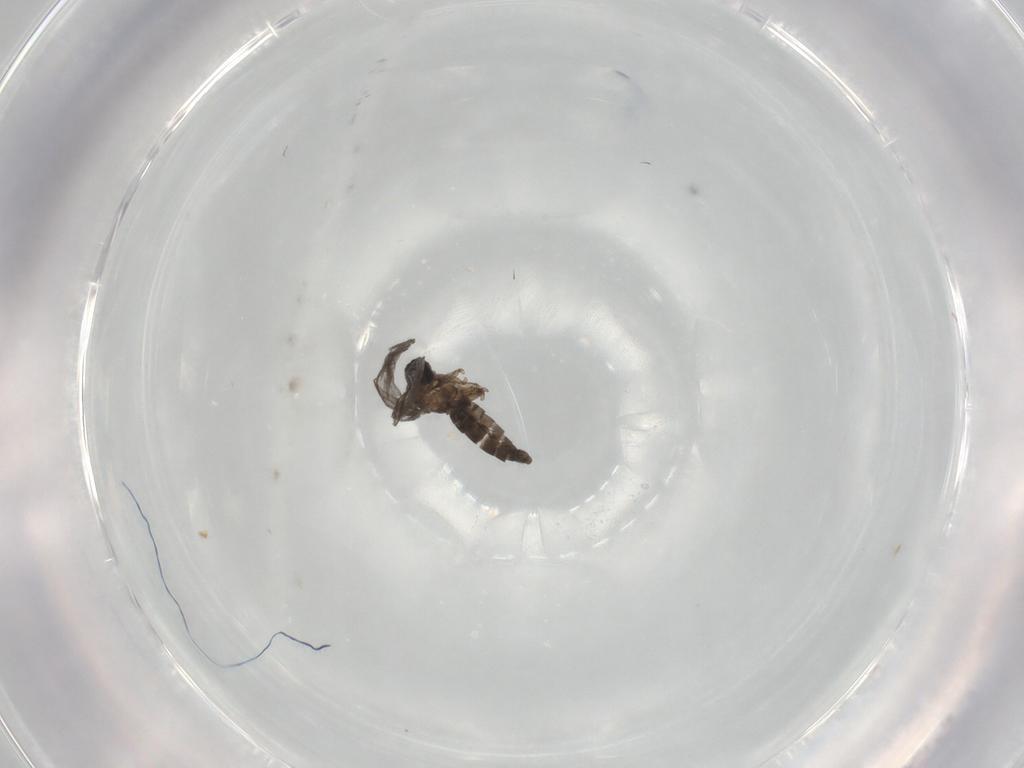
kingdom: Animalia
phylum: Arthropoda
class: Insecta
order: Diptera
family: Sciaridae
